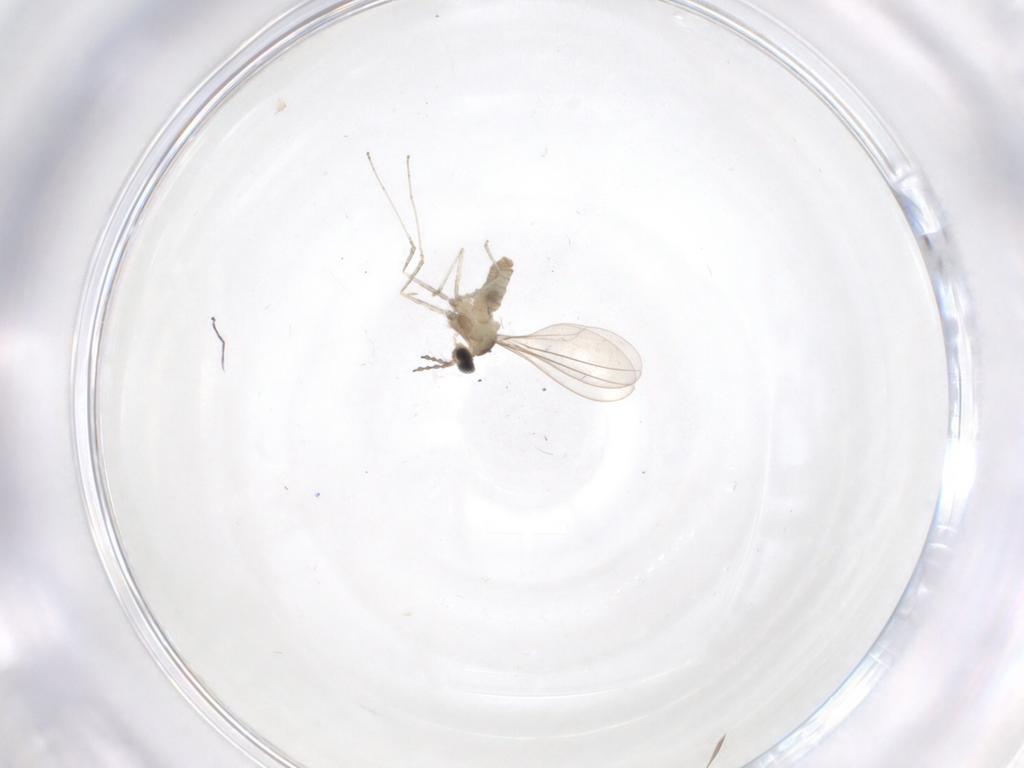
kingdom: Animalia
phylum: Arthropoda
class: Insecta
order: Diptera
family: Cecidomyiidae
